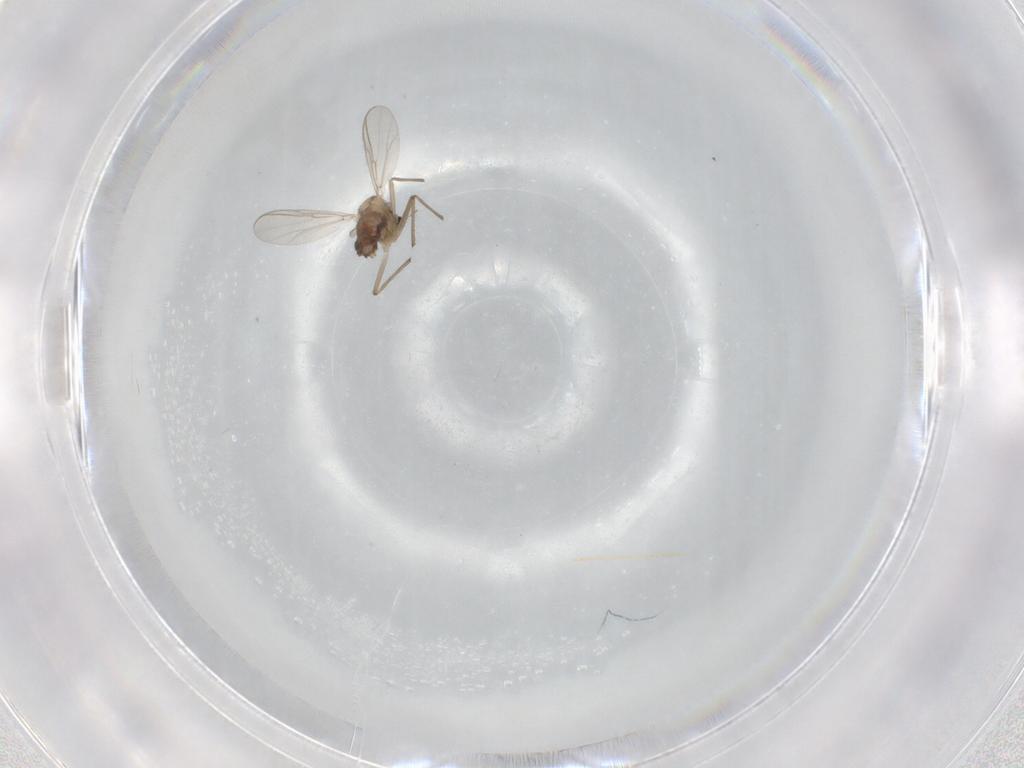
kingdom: Animalia
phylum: Arthropoda
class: Insecta
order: Diptera
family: Chironomidae
